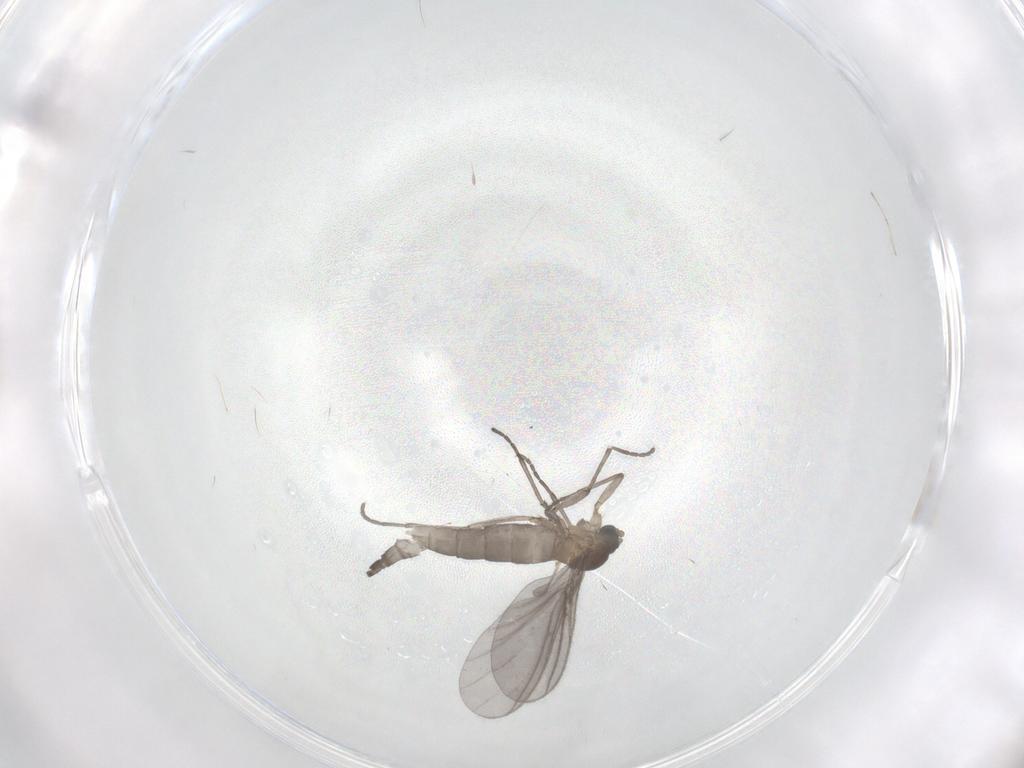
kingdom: Animalia
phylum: Arthropoda
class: Insecta
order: Diptera
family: Sciaridae
